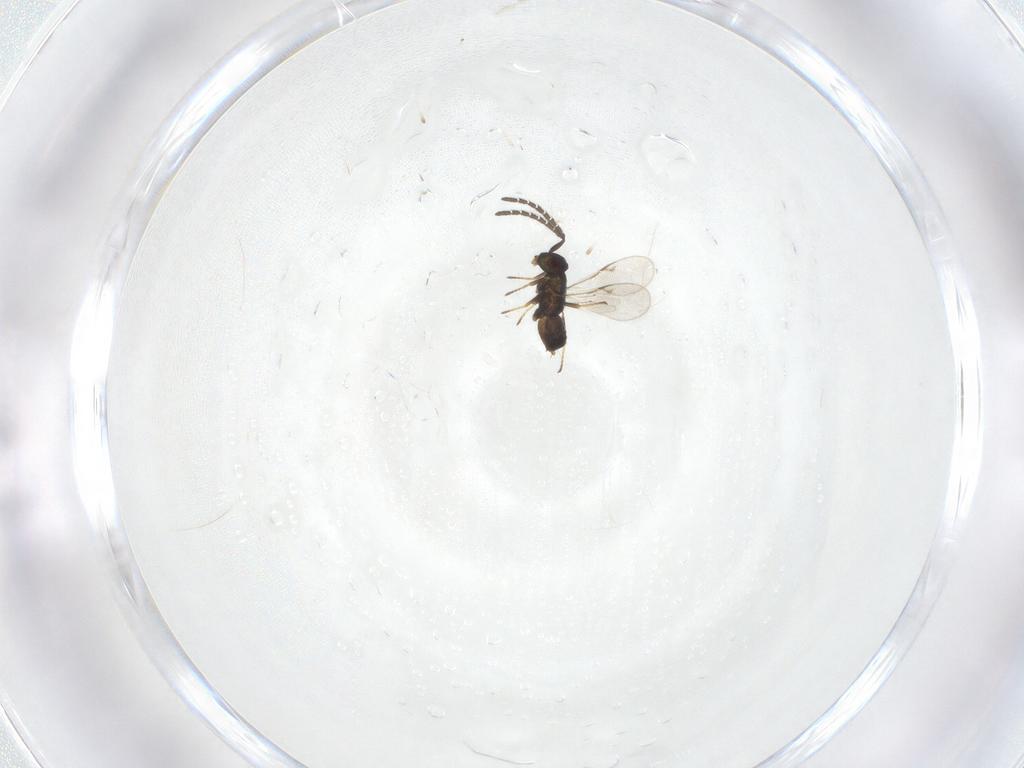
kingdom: Animalia
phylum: Arthropoda
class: Insecta
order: Hymenoptera
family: Encyrtidae
